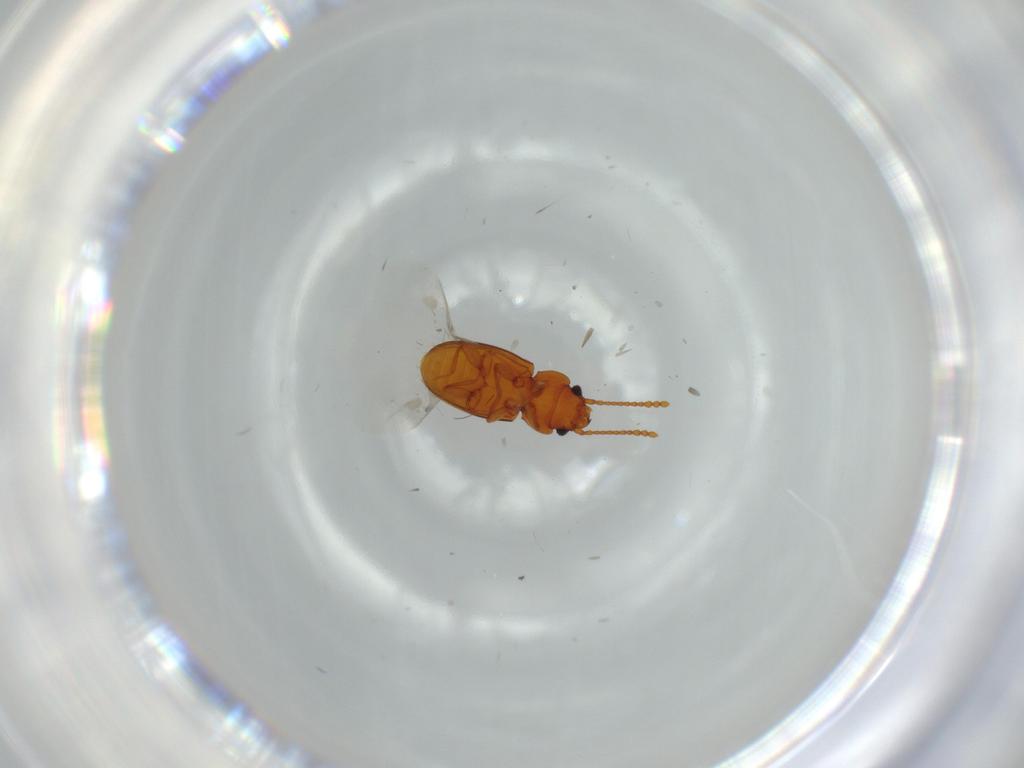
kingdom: Animalia
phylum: Arthropoda
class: Insecta
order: Coleoptera
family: Laemophloeidae
